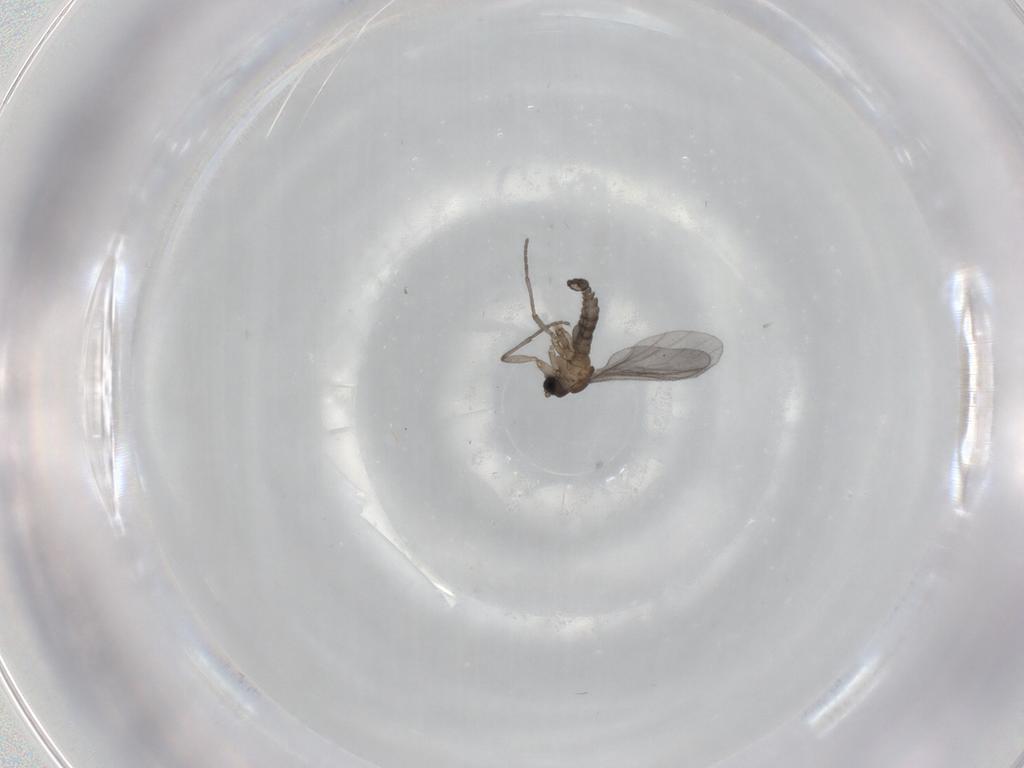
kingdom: Animalia
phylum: Arthropoda
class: Insecta
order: Diptera
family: Sciaridae
